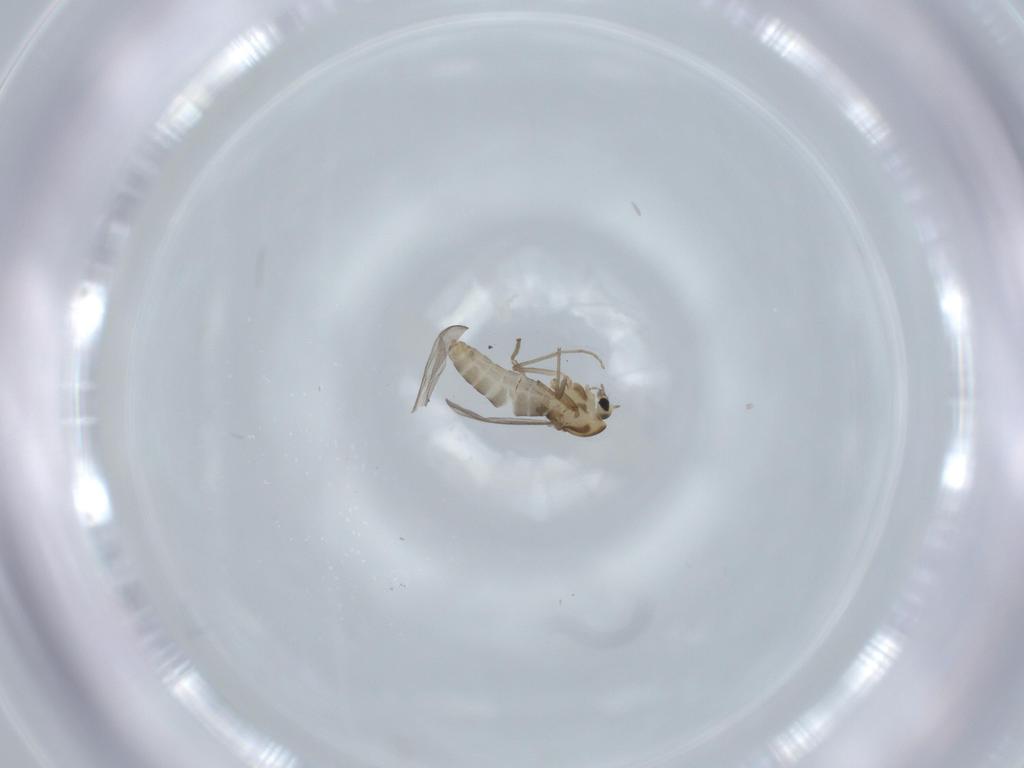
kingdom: Animalia
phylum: Arthropoda
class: Insecta
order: Diptera
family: Chironomidae
